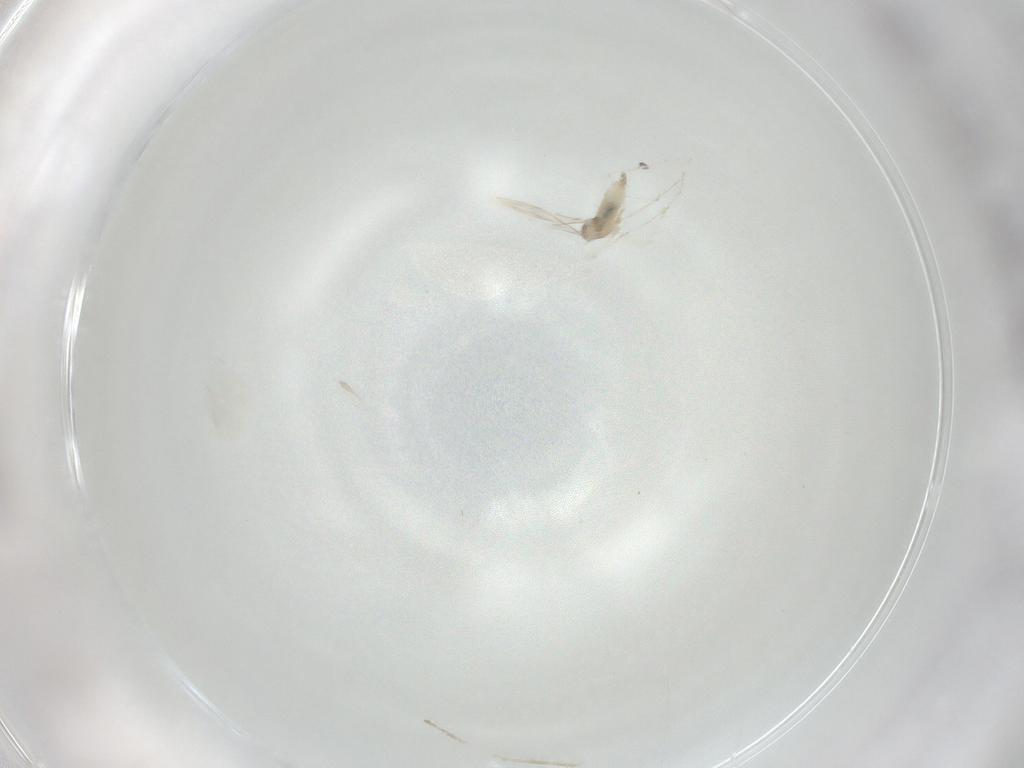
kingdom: Animalia
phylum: Arthropoda
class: Insecta
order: Diptera
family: Cecidomyiidae
